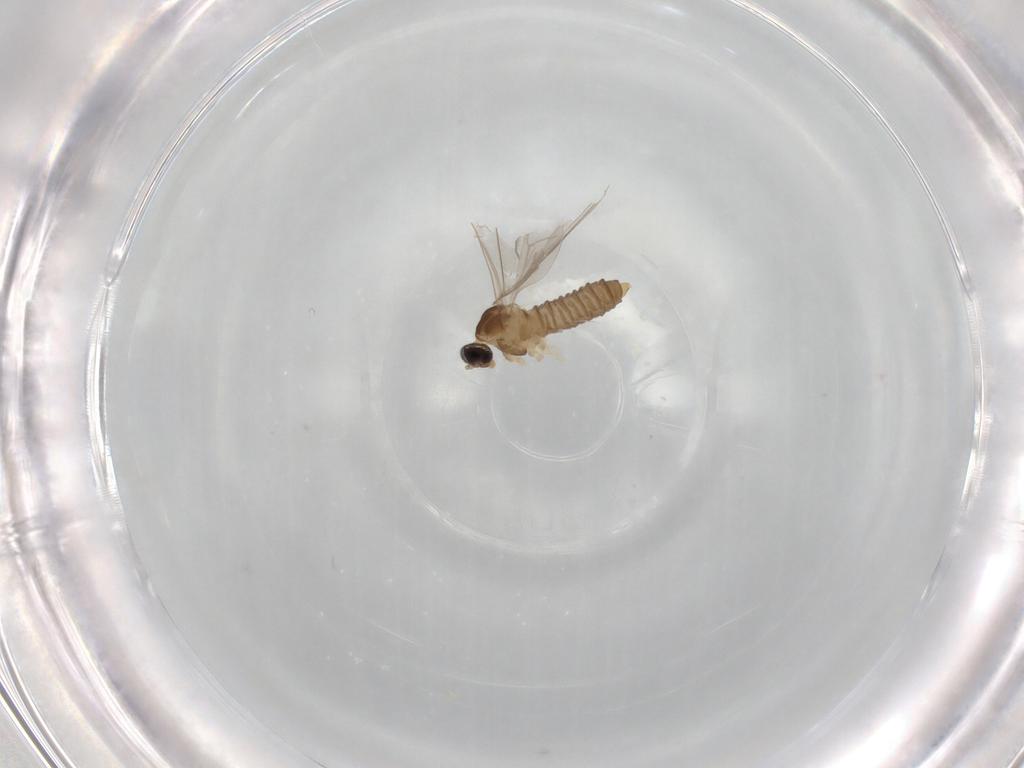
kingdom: Animalia
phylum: Arthropoda
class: Insecta
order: Diptera
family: Cecidomyiidae
